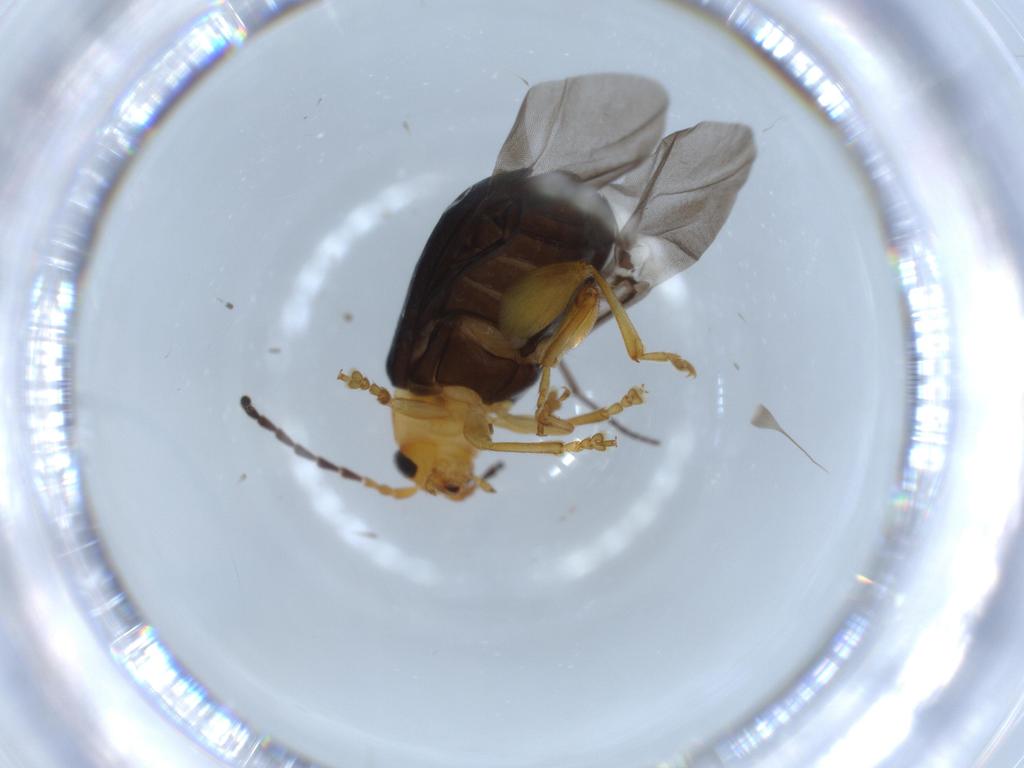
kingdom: Animalia
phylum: Arthropoda
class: Insecta
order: Coleoptera
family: Chrysomelidae
